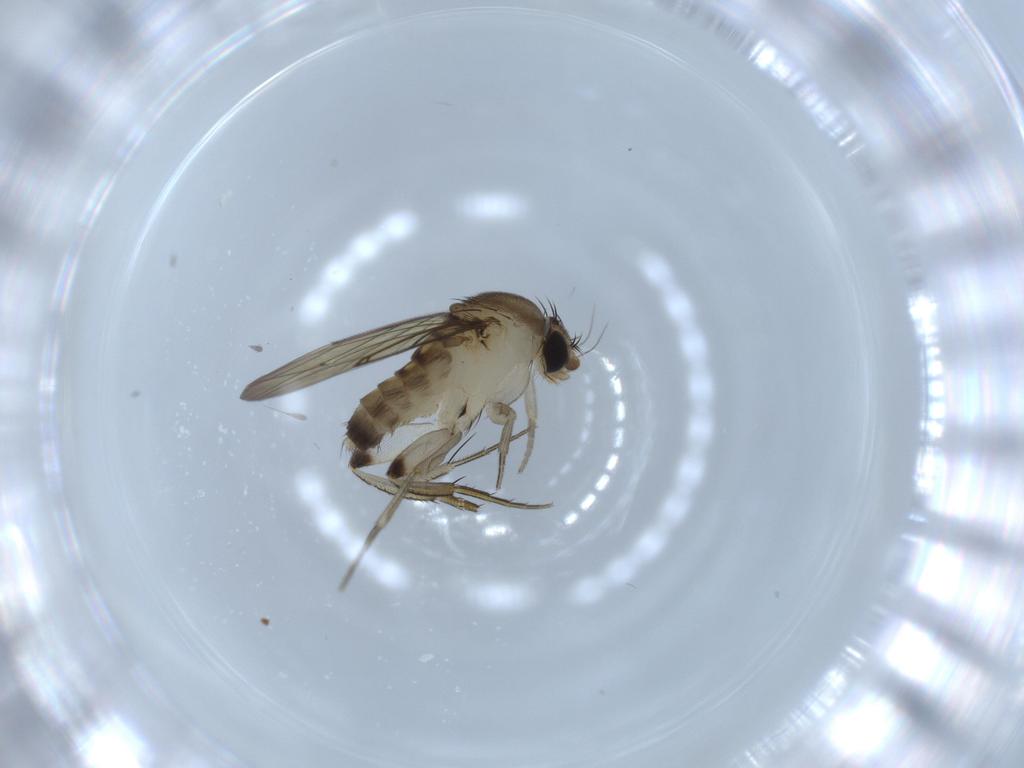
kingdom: Animalia
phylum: Arthropoda
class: Insecta
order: Diptera
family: Phoridae
